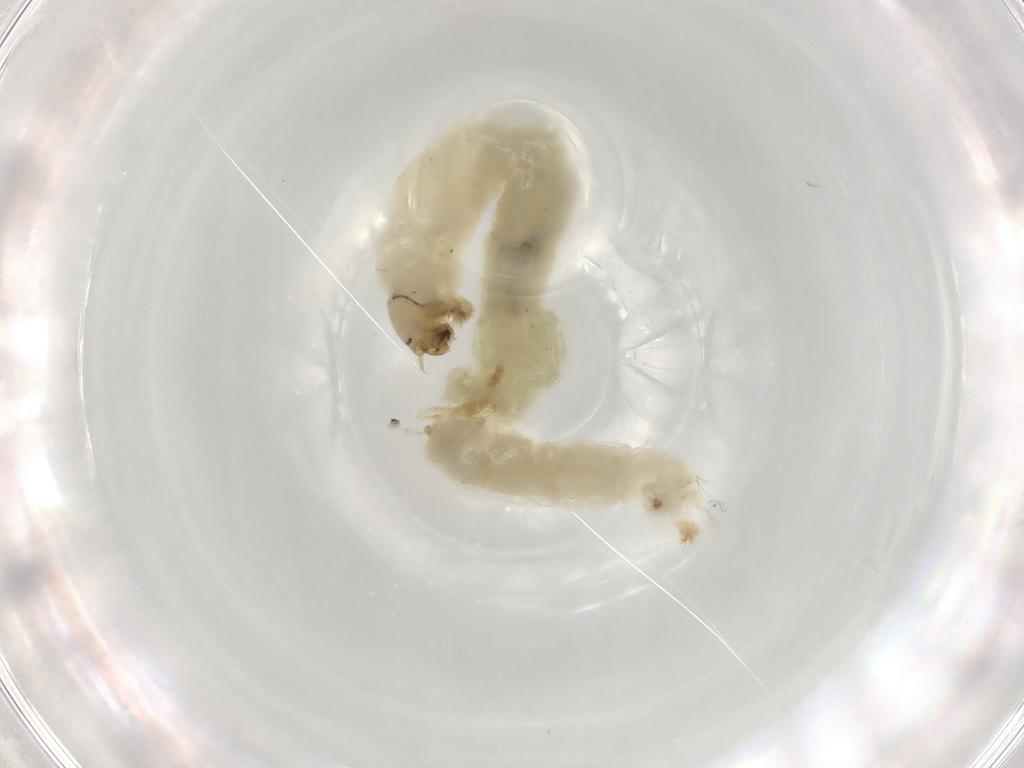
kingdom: Animalia
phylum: Arthropoda
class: Insecta
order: Diptera
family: Chironomidae
